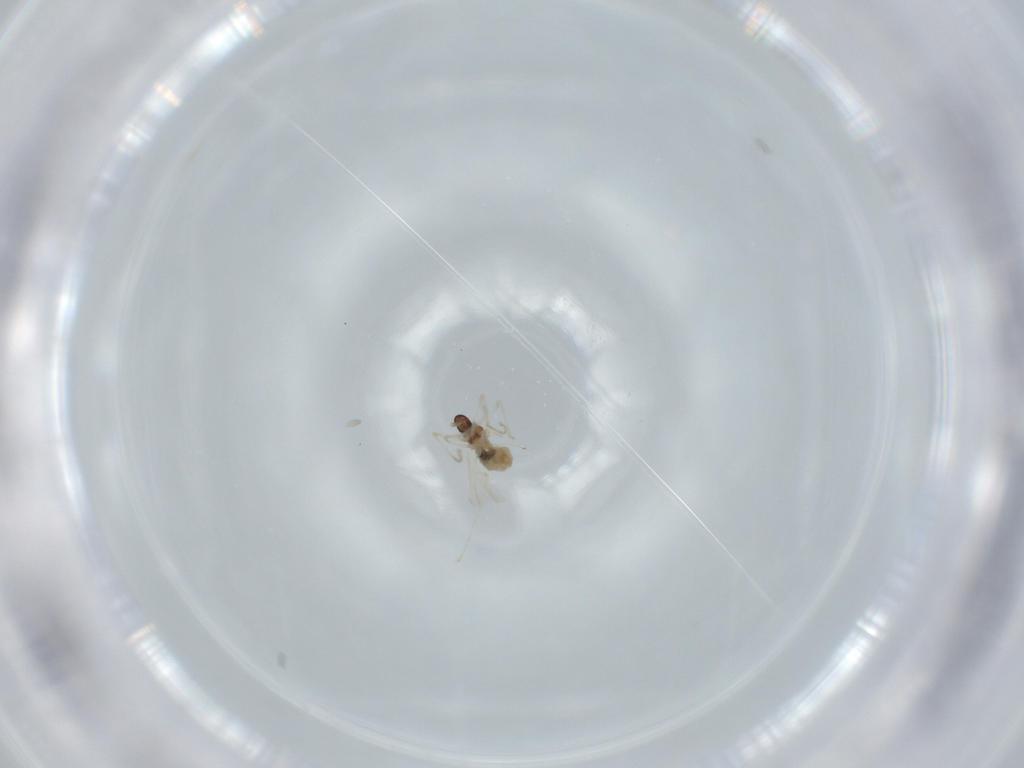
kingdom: Animalia
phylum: Arthropoda
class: Insecta
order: Diptera
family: Cecidomyiidae
